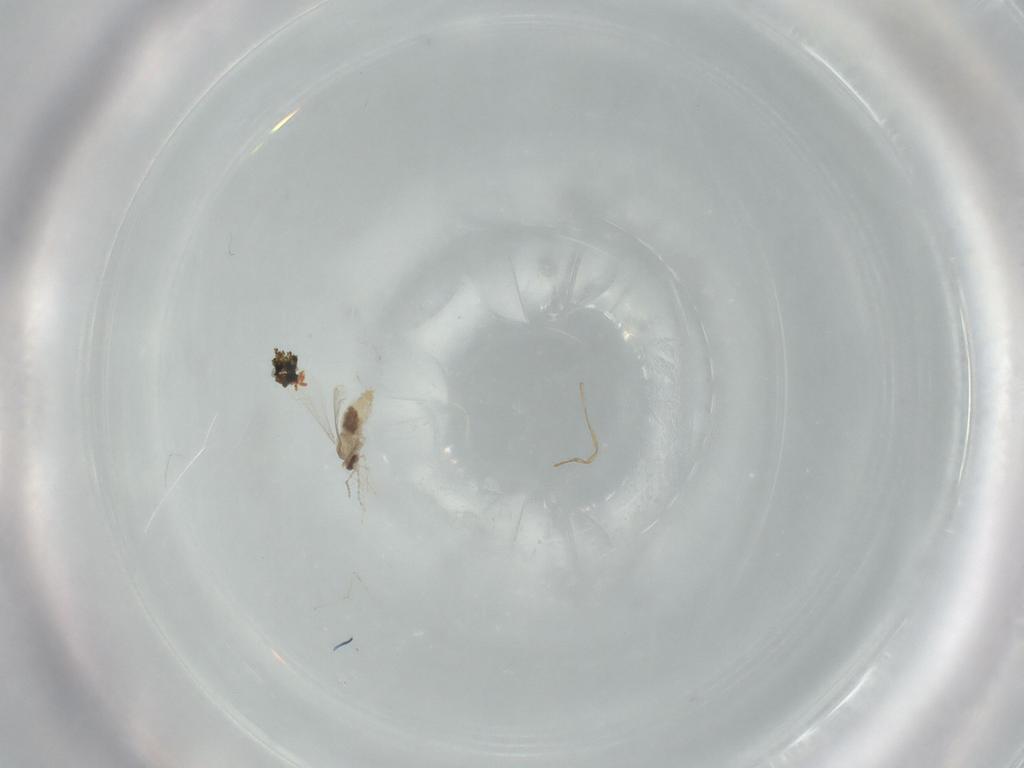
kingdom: Animalia
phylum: Arthropoda
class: Insecta
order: Diptera
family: Cecidomyiidae
